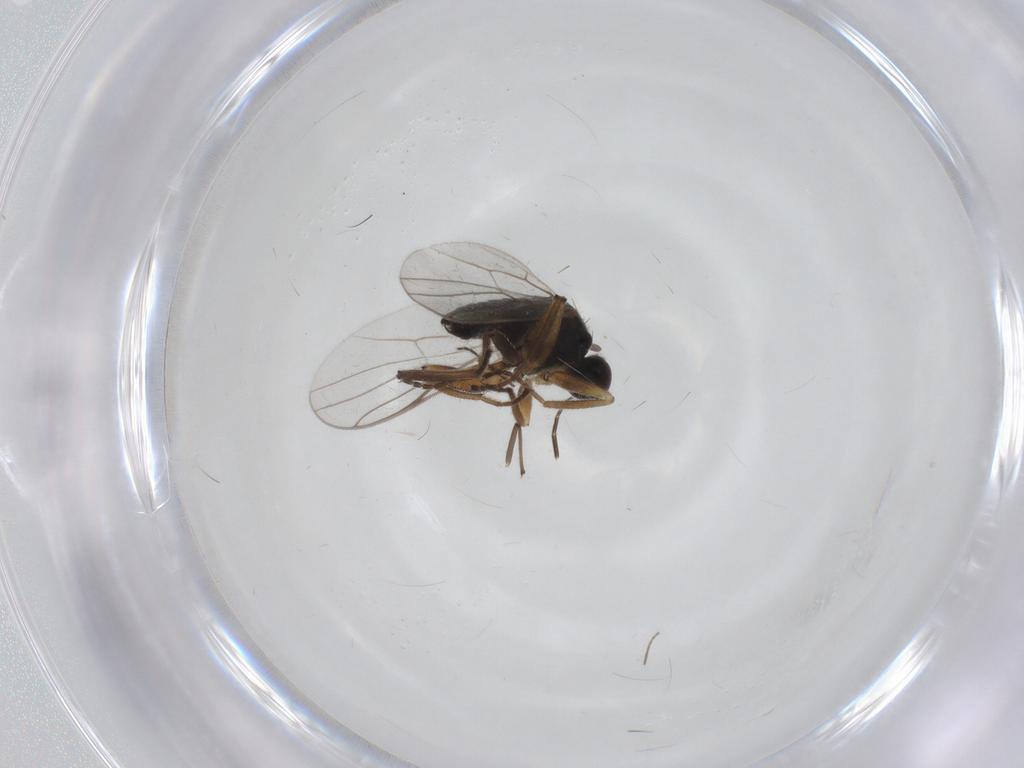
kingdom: Animalia
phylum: Arthropoda
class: Insecta
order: Diptera
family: Hybotidae
